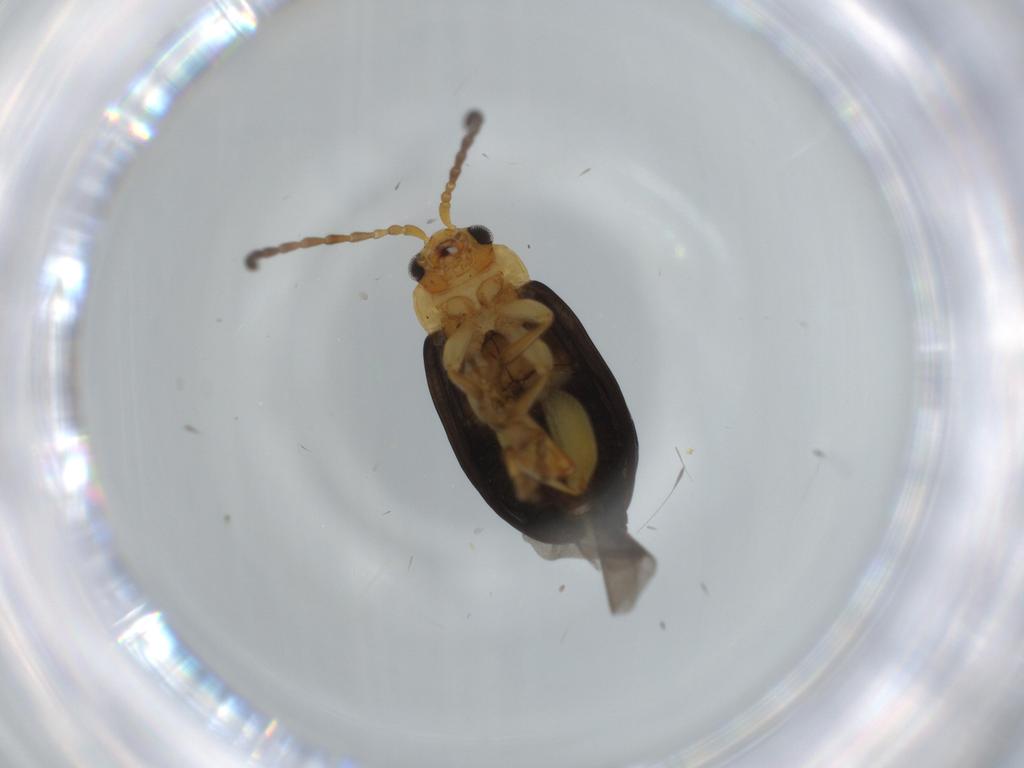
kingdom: Animalia
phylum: Arthropoda
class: Insecta
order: Coleoptera
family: Chrysomelidae
